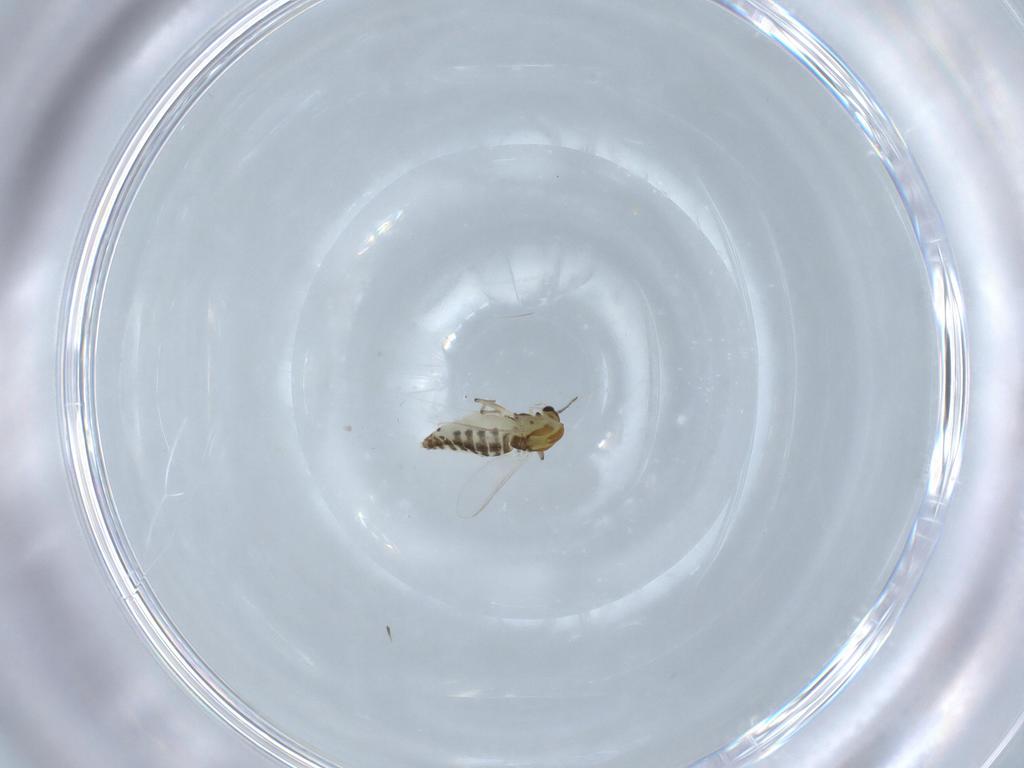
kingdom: Animalia
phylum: Arthropoda
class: Insecta
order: Diptera
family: Chironomidae
